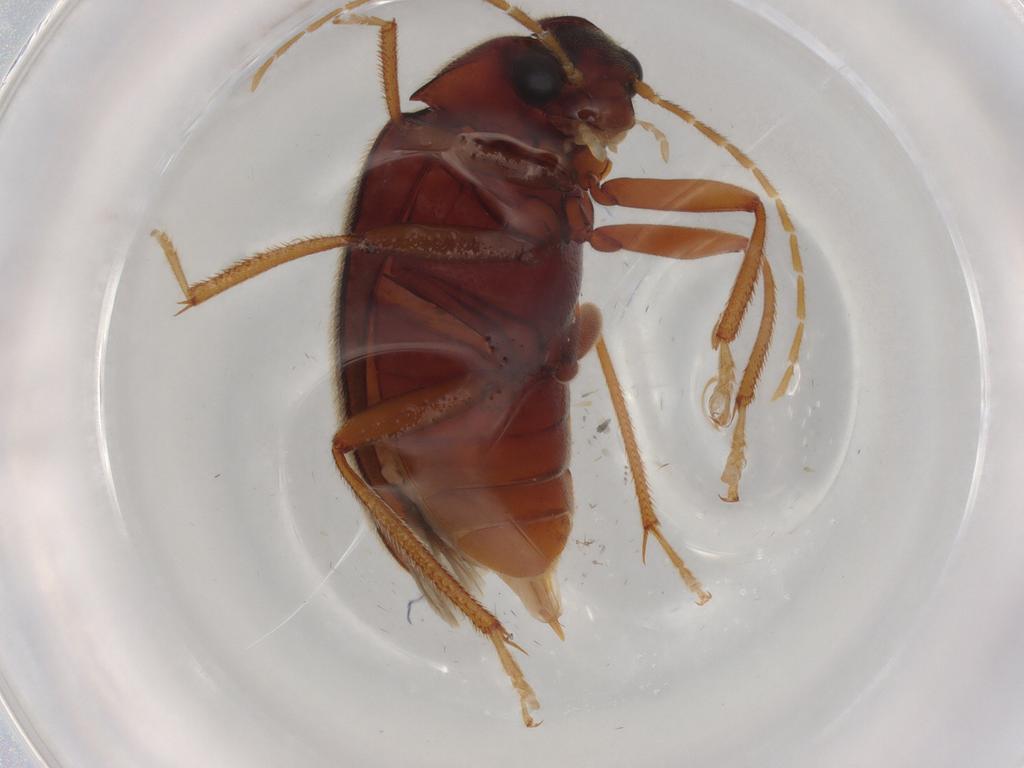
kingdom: Animalia
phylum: Arthropoda
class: Insecta
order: Coleoptera
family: Ptilodactylidae
